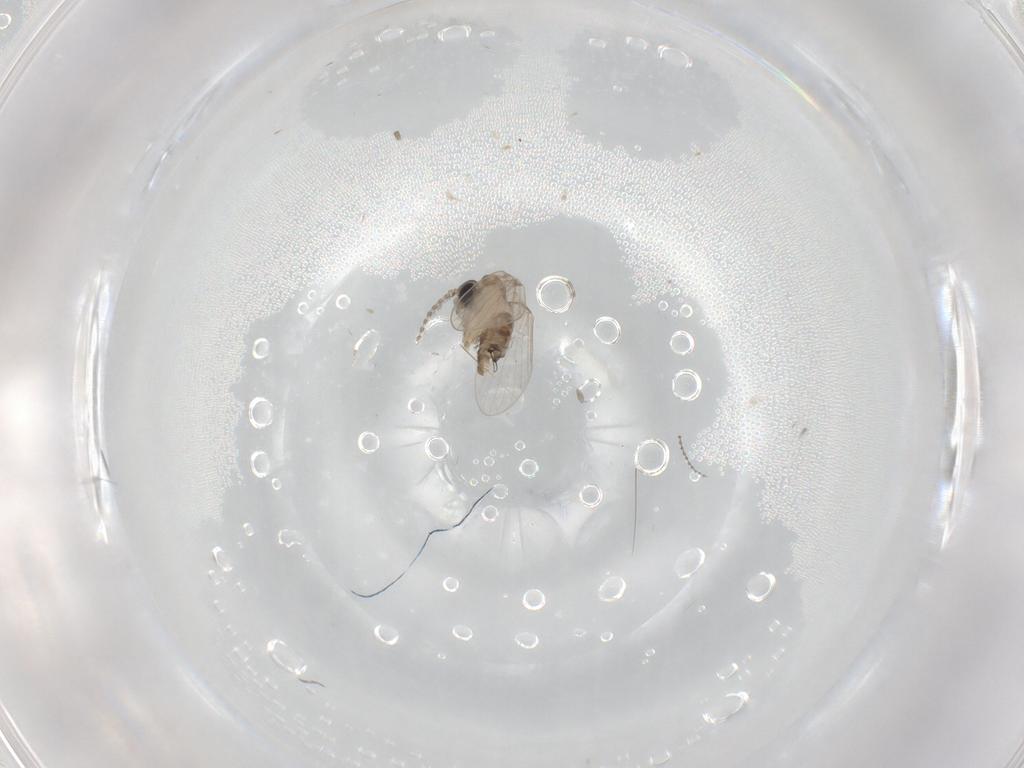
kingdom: Animalia
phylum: Arthropoda
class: Insecta
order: Diptera
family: Cecidomyiidae
